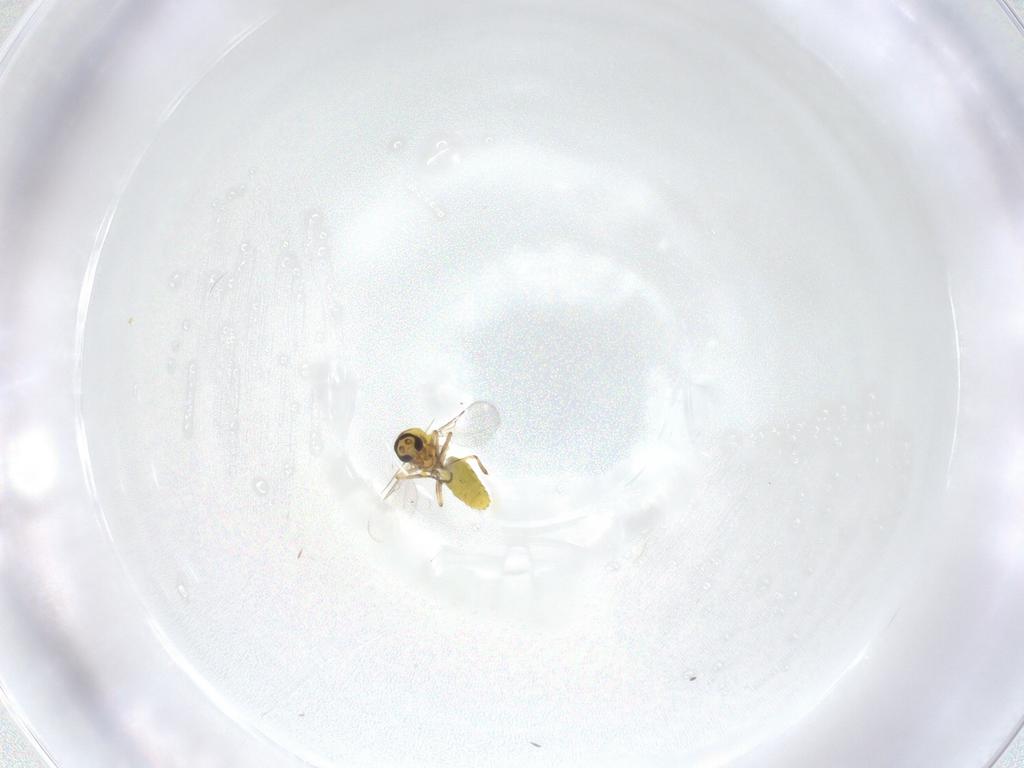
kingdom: Animalia
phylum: Arthropoda
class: Insecta
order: Diptera
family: Ceratopogonidae
